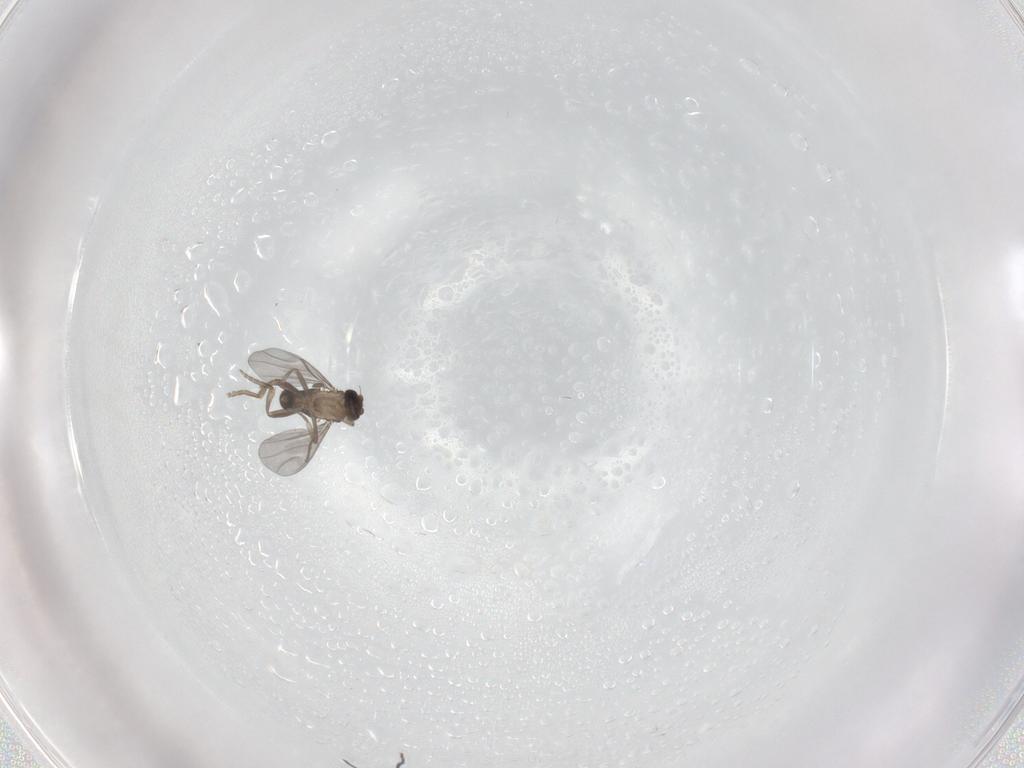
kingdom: Animalia
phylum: Arthropoda
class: Insecta
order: Diptera
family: Phoridae
